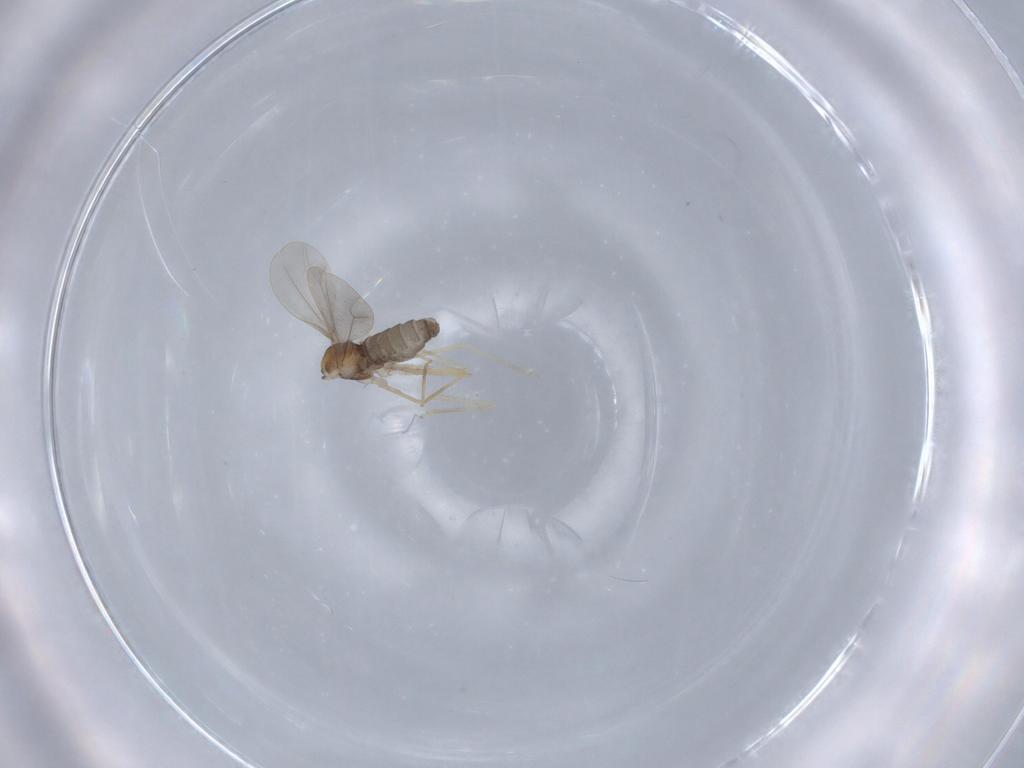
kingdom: Animalia
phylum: Arthropoda
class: Insecta
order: Diptera
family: Cecidomyiidae
